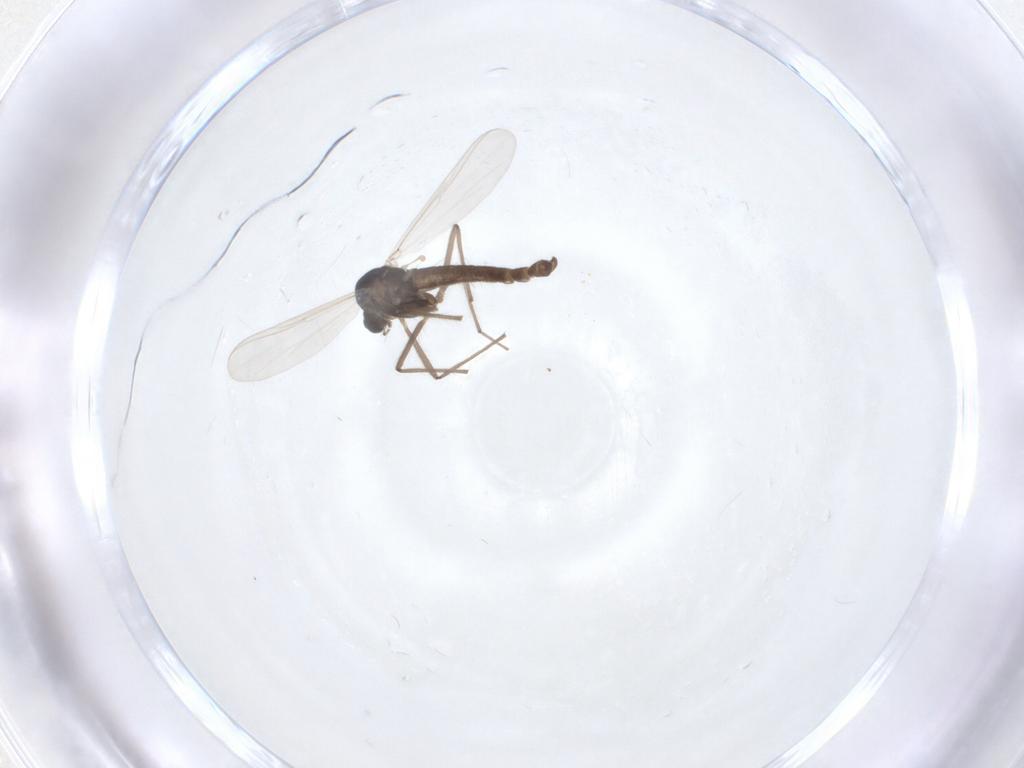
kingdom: Animalia
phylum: Arthropoda
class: Insecta
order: Diptera
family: Chironomidae
